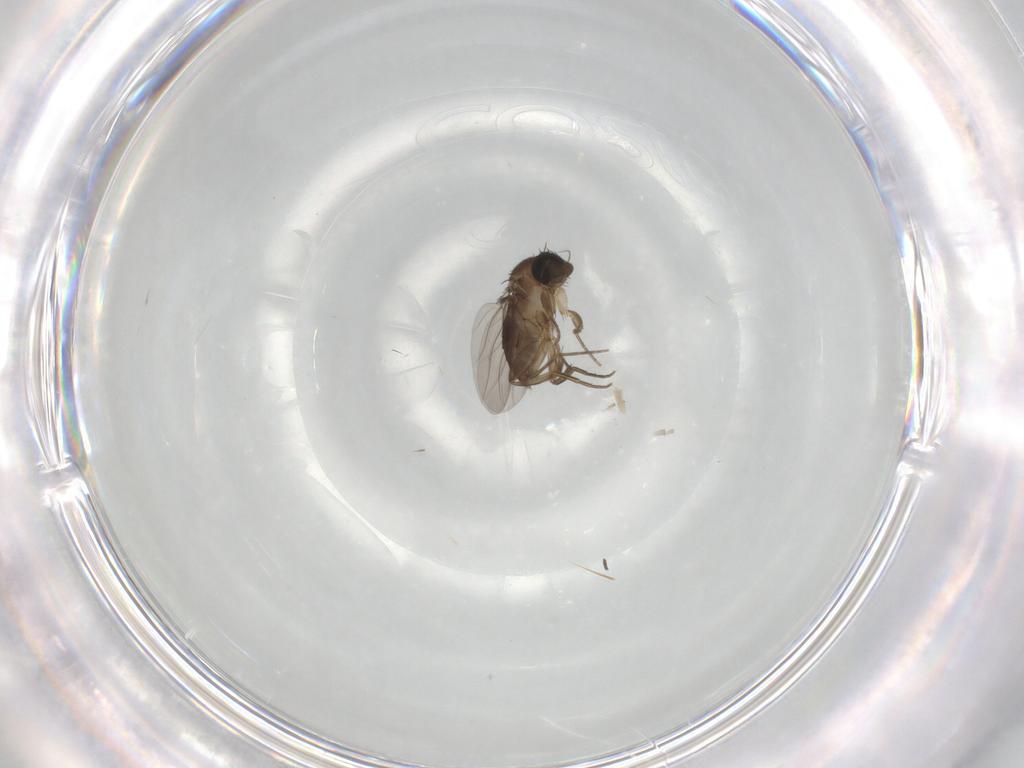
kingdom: Animalia
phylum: Arthropoda
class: Insecta
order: Diptera
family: Phoridae
